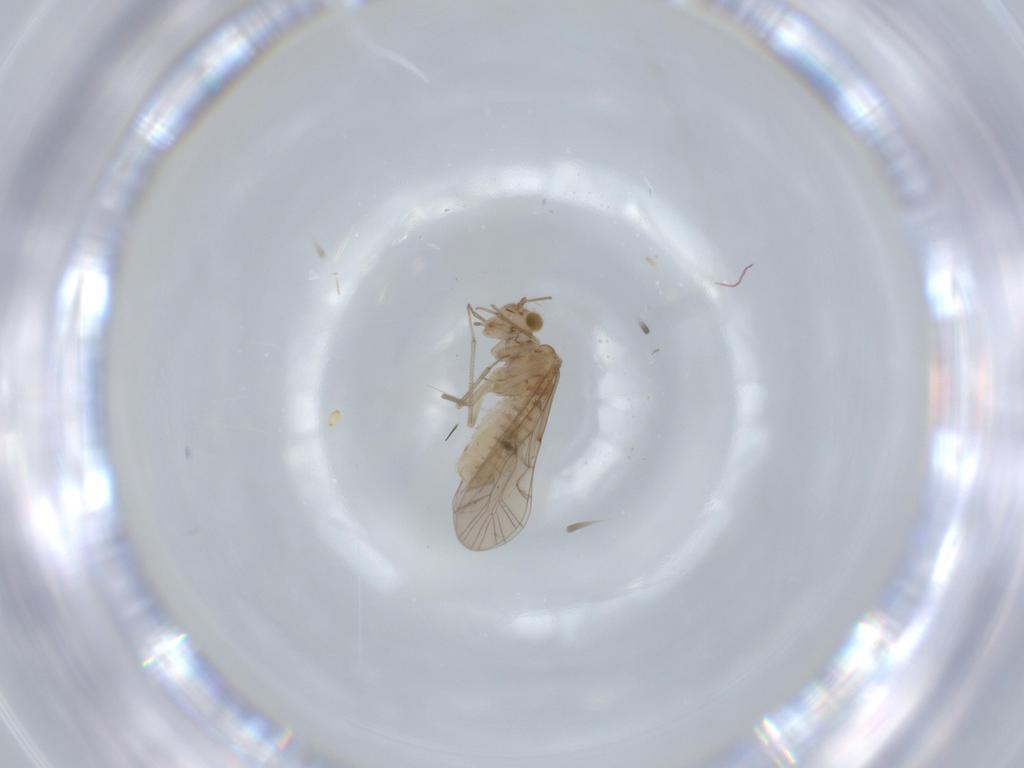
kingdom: Animalia
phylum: Arthropoda
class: Insecta
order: Psocodea
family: Lachesillidae
